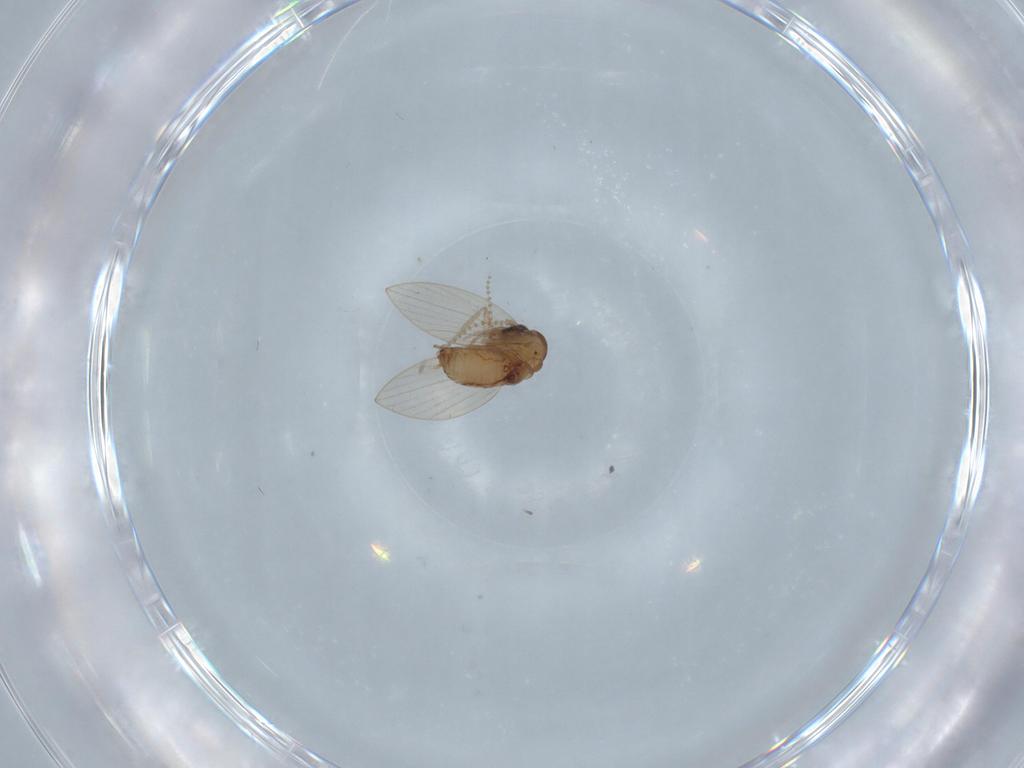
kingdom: Animalia
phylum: Arthropoda
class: Insecta
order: Diptera
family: Psychodidae
